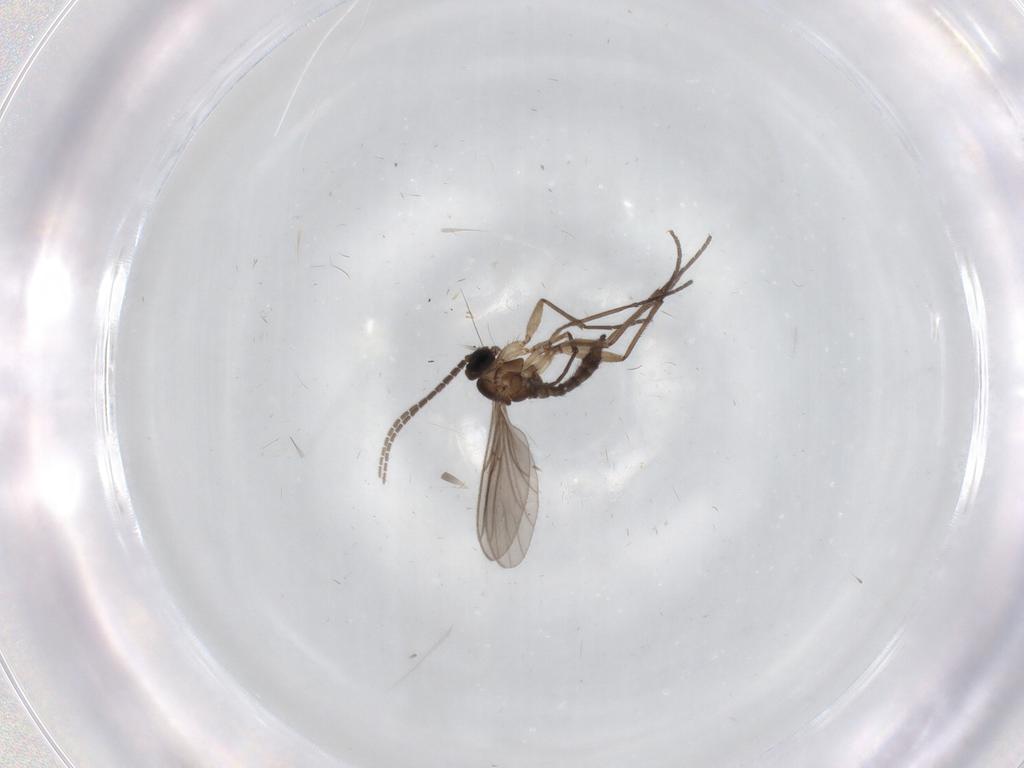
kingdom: Animalia
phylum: Arthropoda
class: Insecta
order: Diptera
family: Sciaridae
